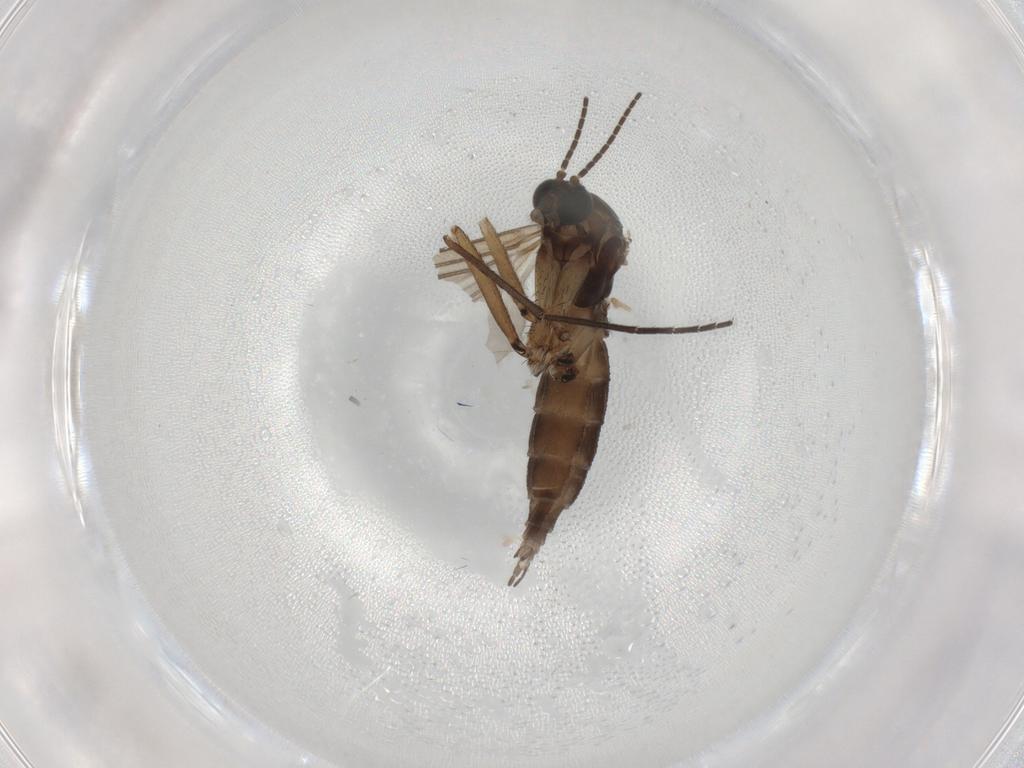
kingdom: Animalia
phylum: Arthropoda
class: Insecta
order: Diptera
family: Sciaridae
